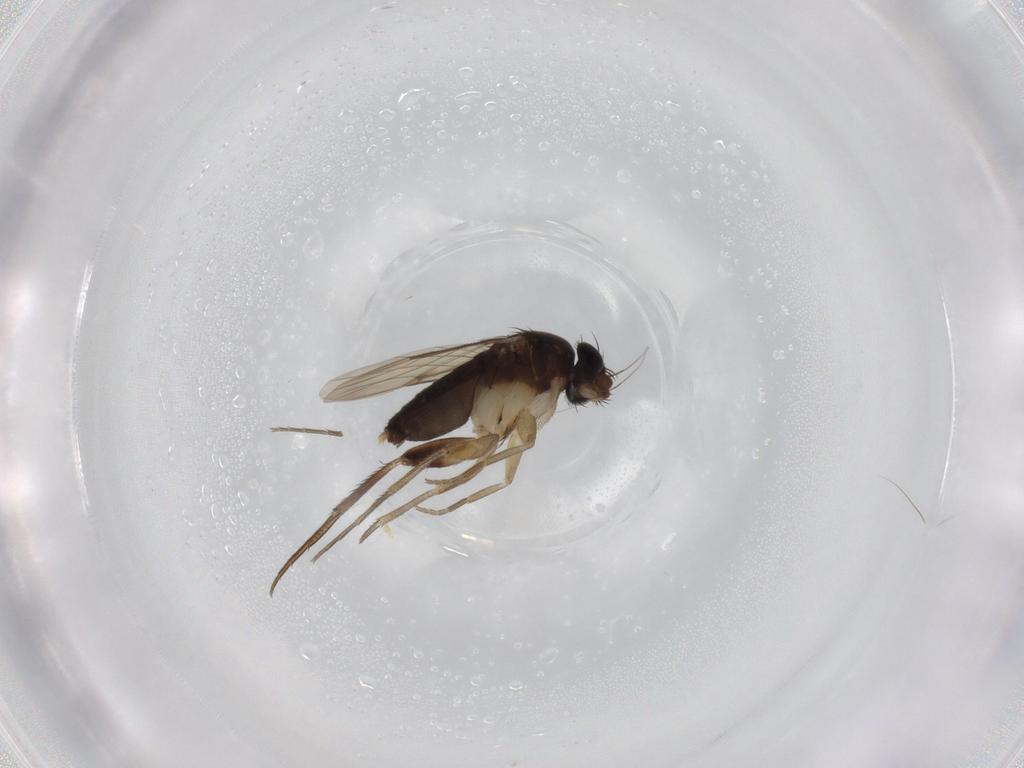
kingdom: Animalia
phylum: Arthropoda
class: Insecta
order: Diptera
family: Phoridae
